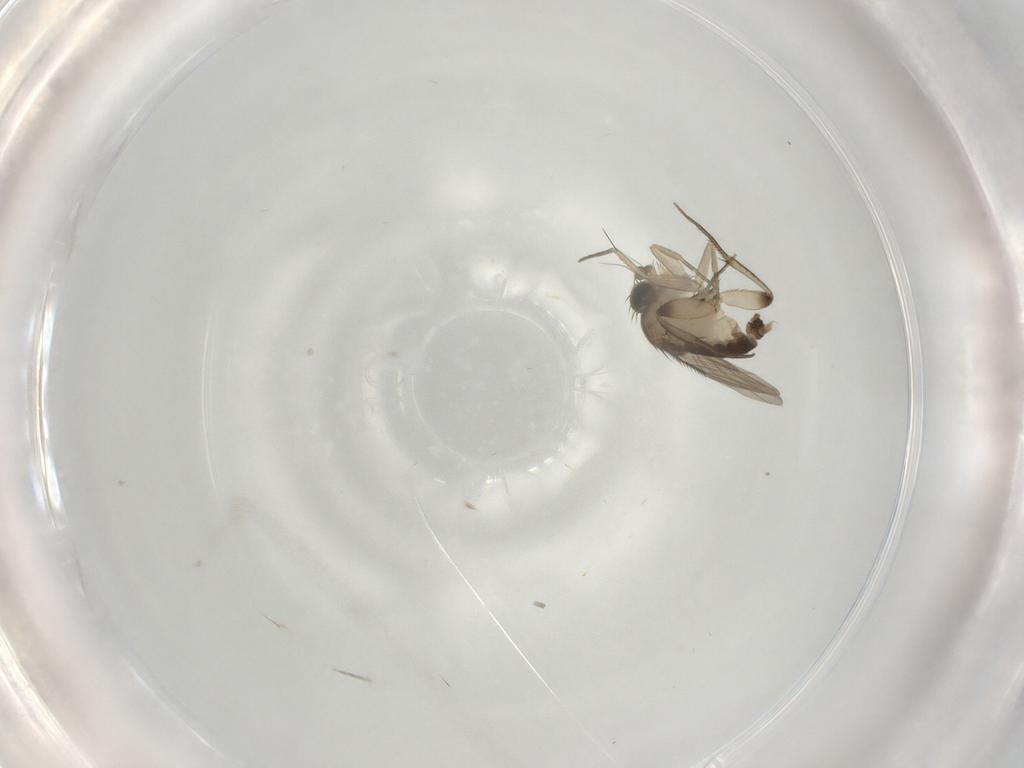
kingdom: Animalia
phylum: Arthropoda
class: Insecta
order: Diptera
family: Phoridae
